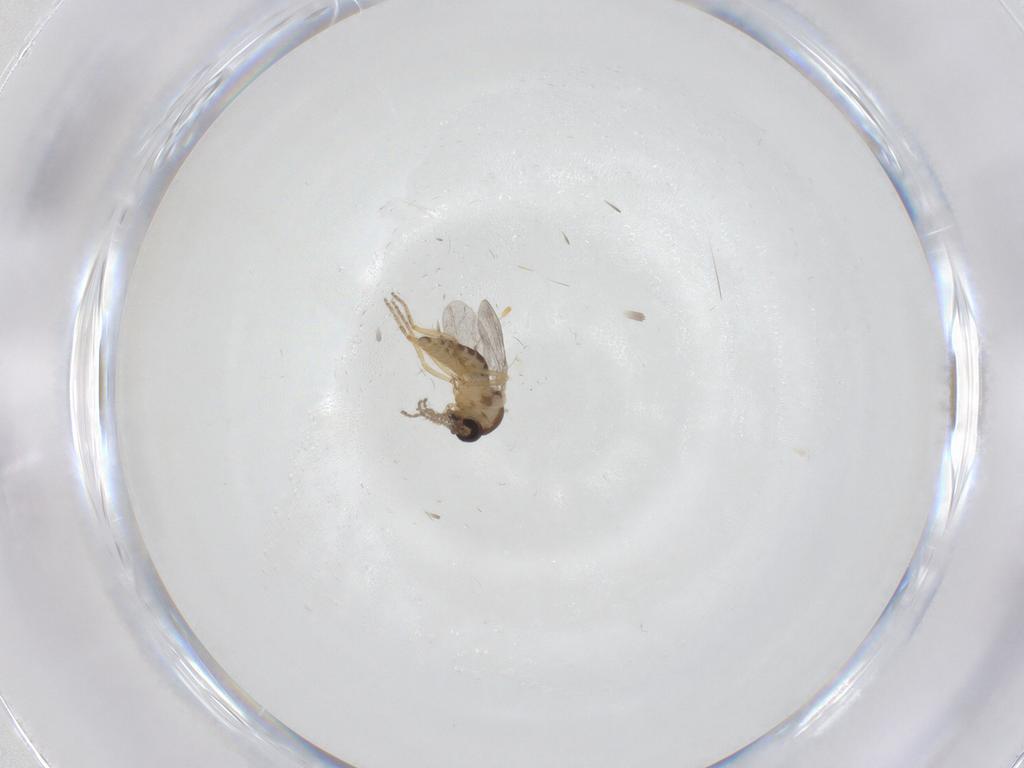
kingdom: Animalia
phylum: Arthropoda
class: Insecta
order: Diptera
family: Ceratopogonidae
